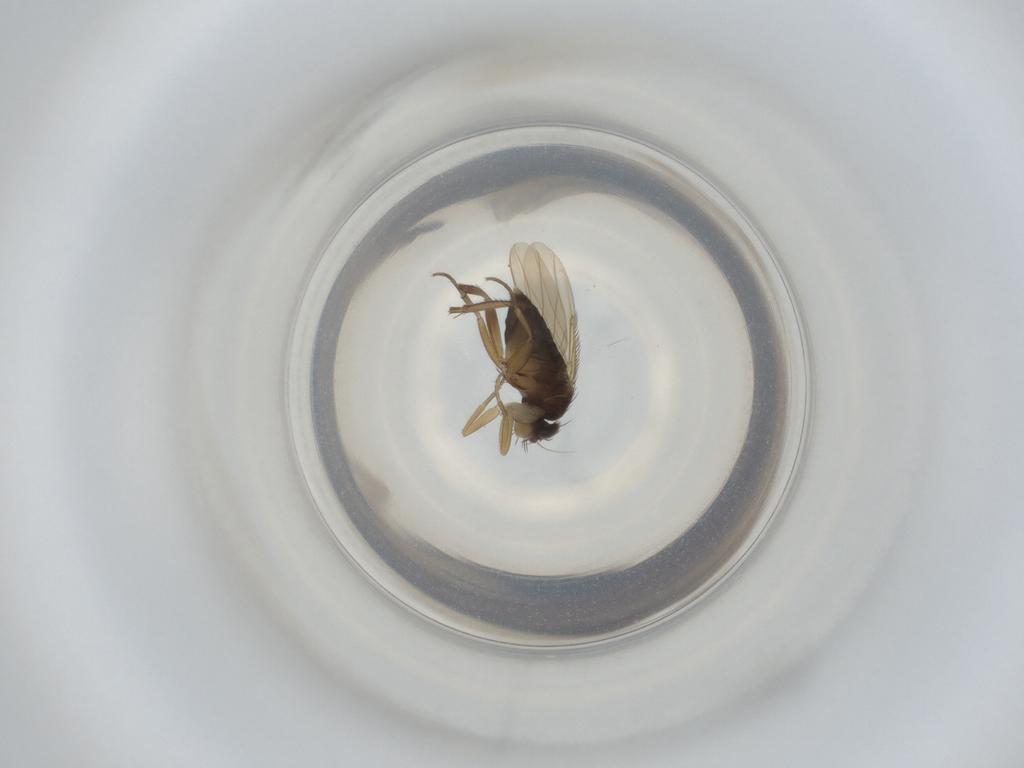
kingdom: Animalia
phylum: Arthropoda
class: Insecta
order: Diptera
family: Phoridae
